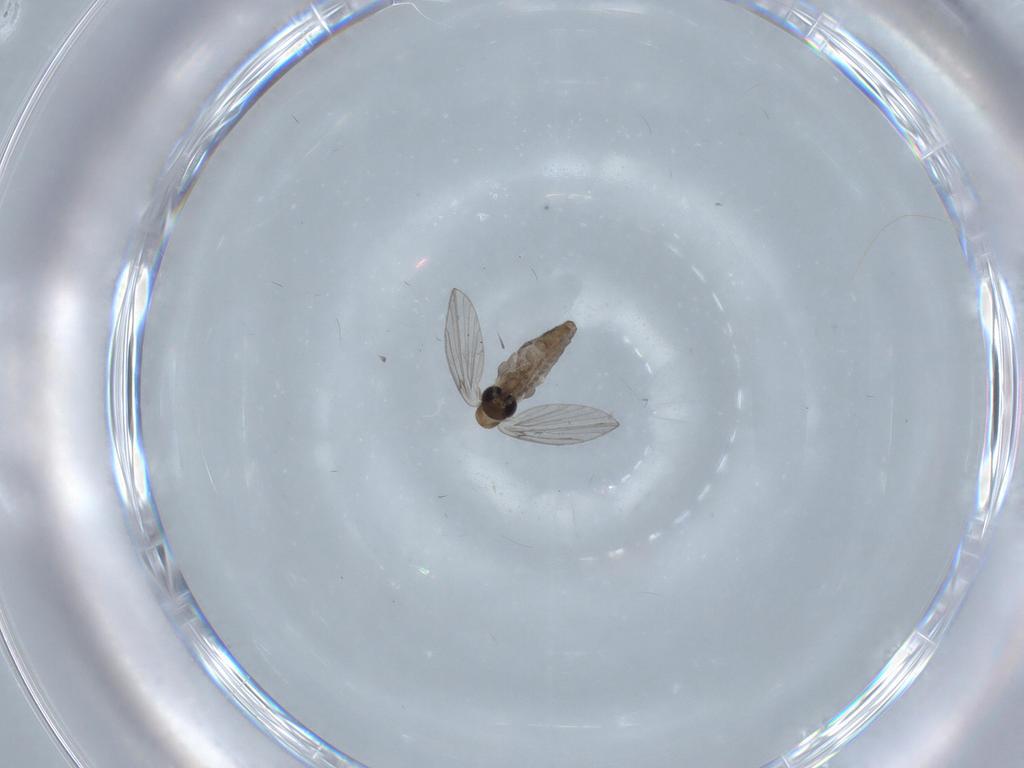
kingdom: Animalia
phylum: Arthropoda
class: Insecta
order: Diptera
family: Chironomidae
